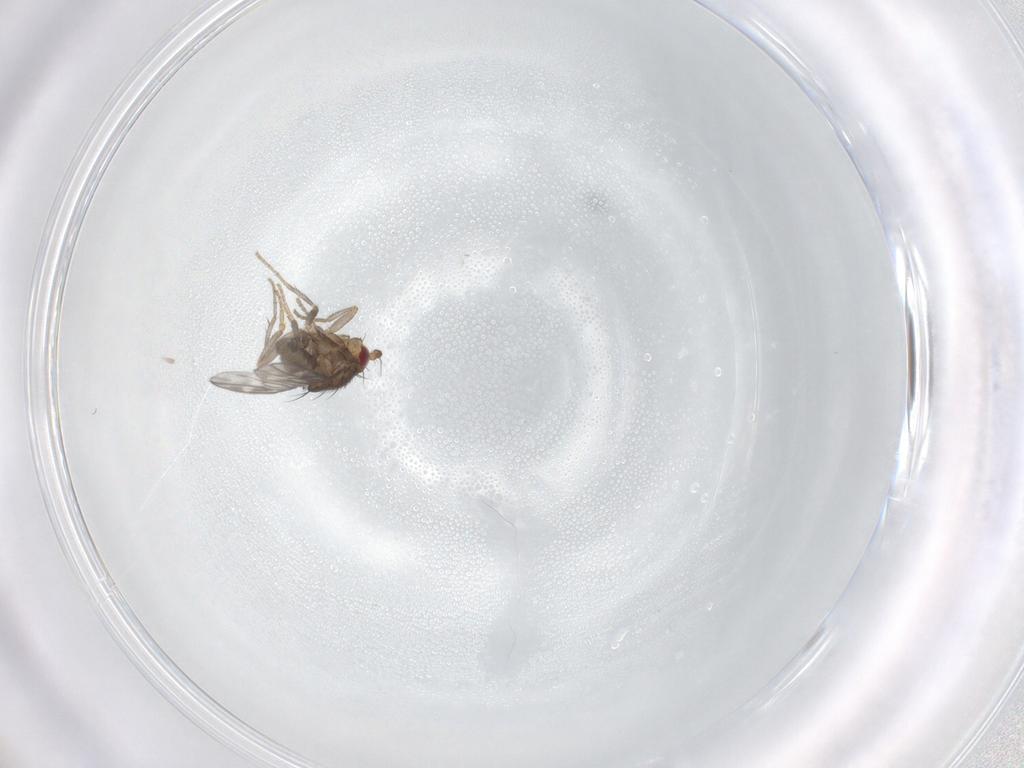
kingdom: Animalia
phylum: Arthropoda
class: Insecta
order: Diptera
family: Sphaeroceridae
